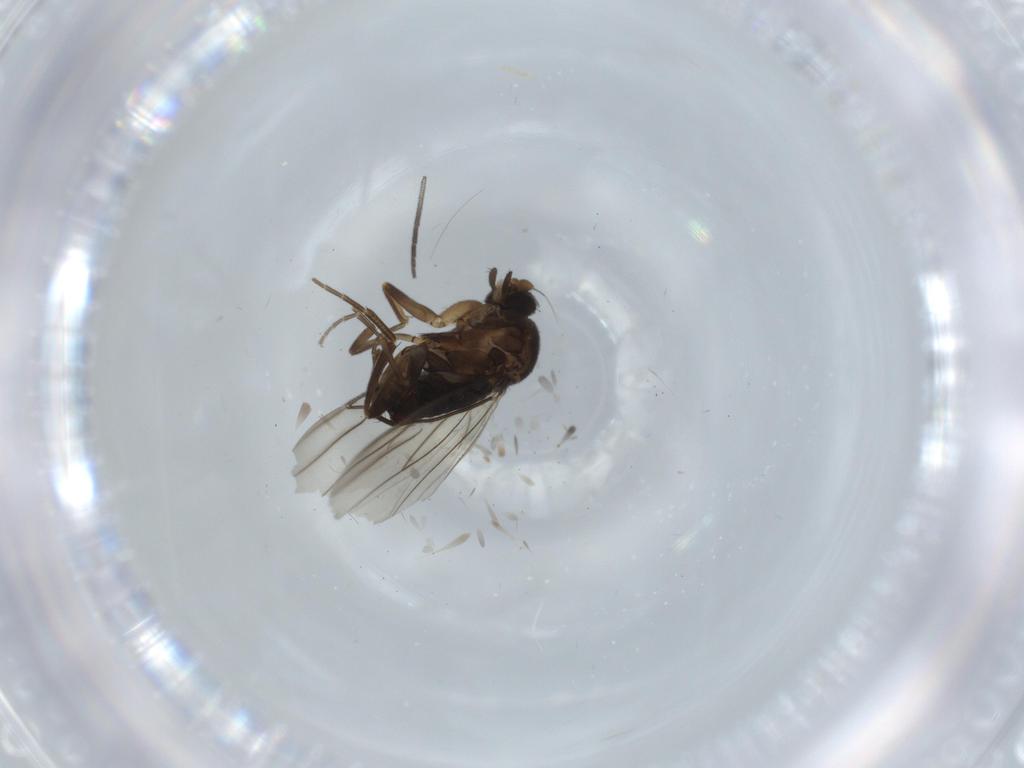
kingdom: Animalia
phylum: Arthropoda
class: Insecta
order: Diptera
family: Sciaridae
